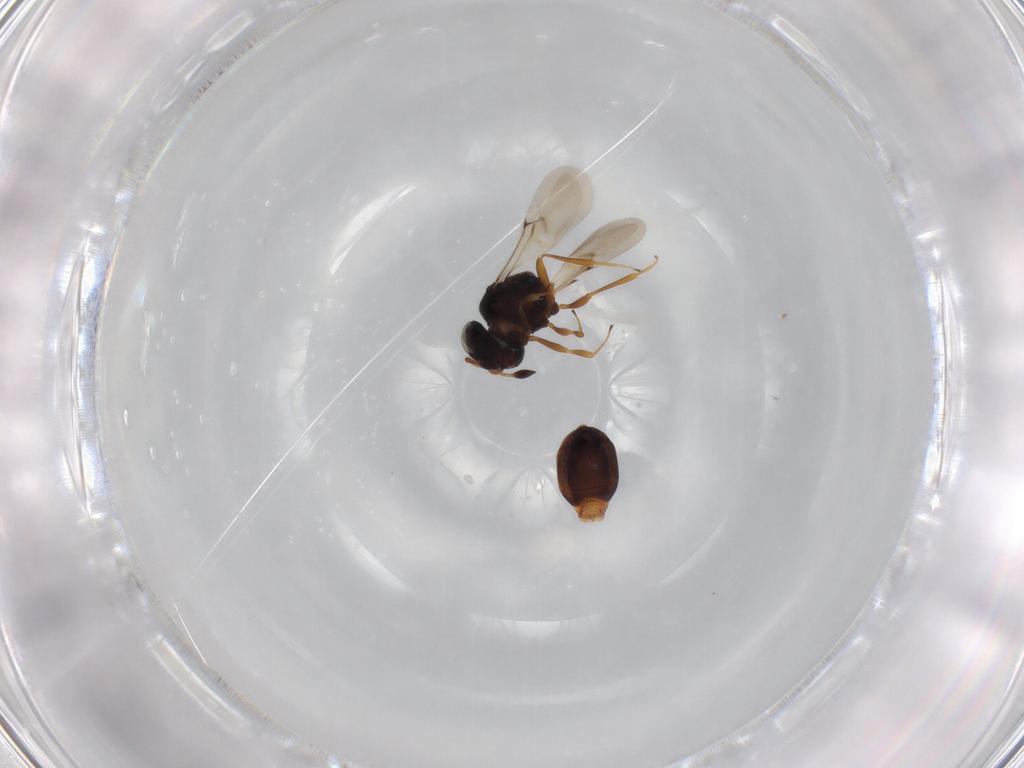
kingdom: Animalia
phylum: Arthropoda
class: Insecta
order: Hymenoptera
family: Scelionidae
